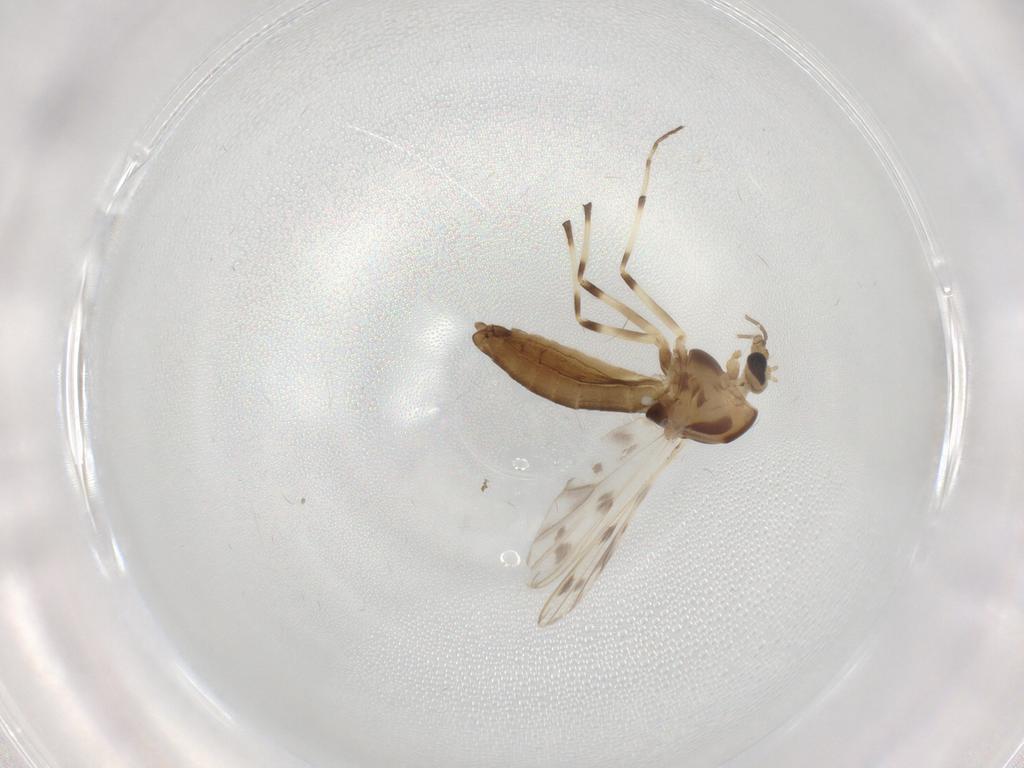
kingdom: Animalia
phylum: Arthropoda
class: Insecta
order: Diptera
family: Chironomidae
